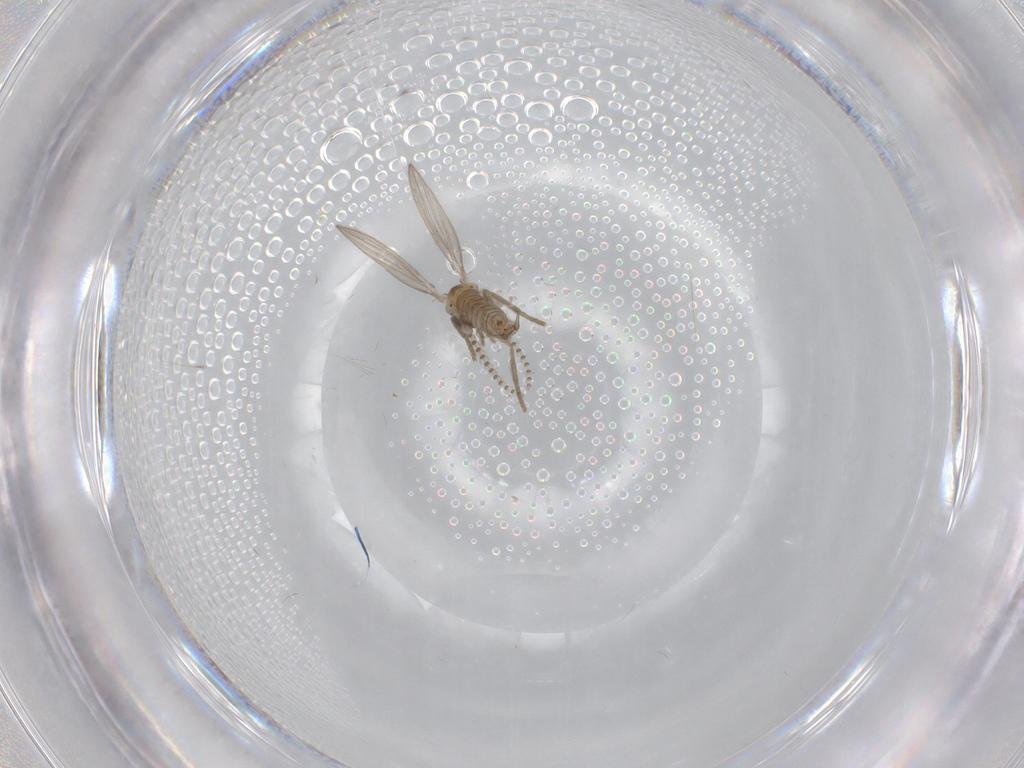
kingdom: Animalia
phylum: Arthropoda
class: Insecta
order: Diptera
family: Psychodidae
